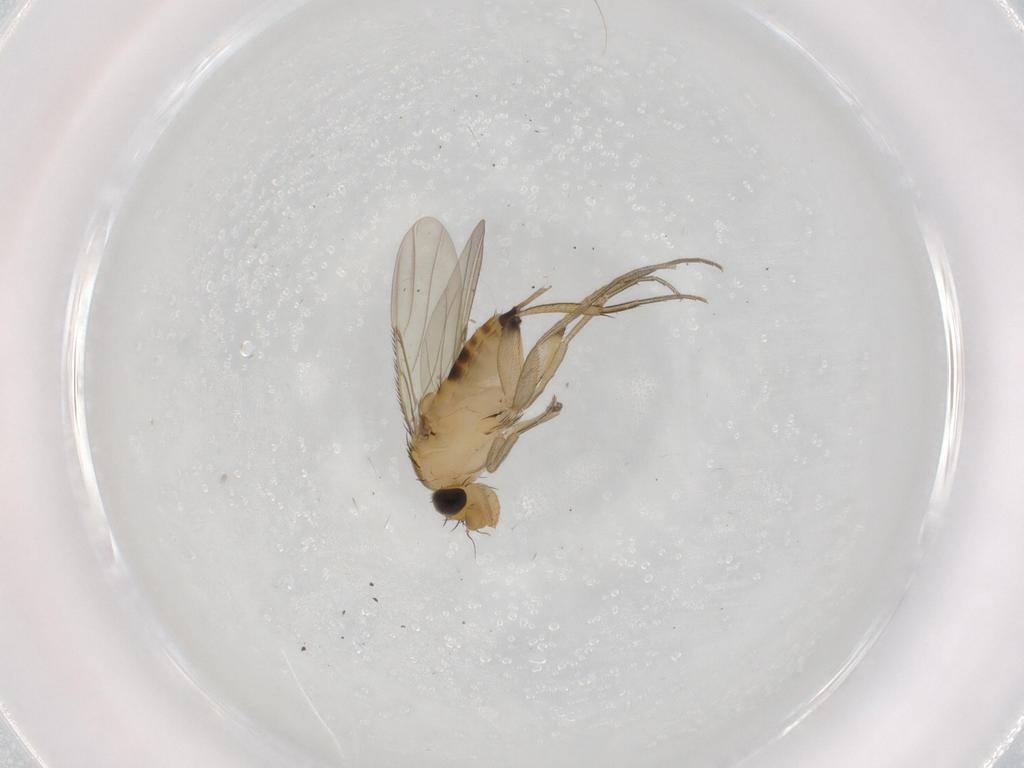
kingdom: Animalia
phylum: Arthropoda
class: Insecta
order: Diptera
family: Phoridae
